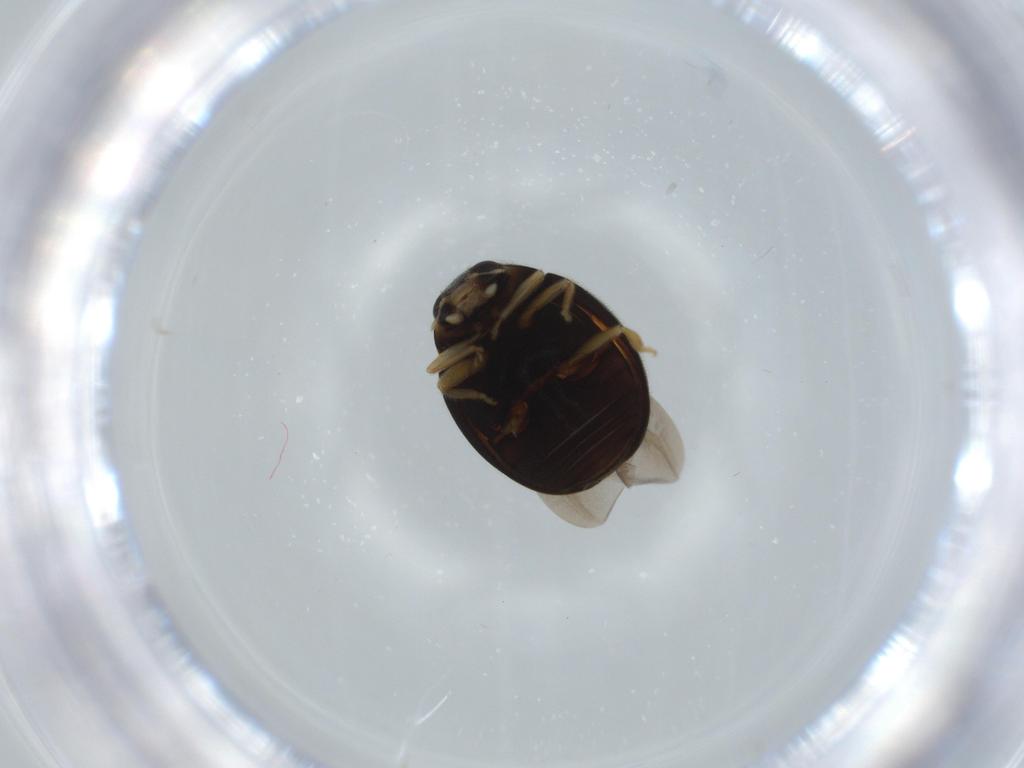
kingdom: Animalia
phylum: Arthropoda
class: Insecta
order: Coleoptera
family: Coccinellidae
